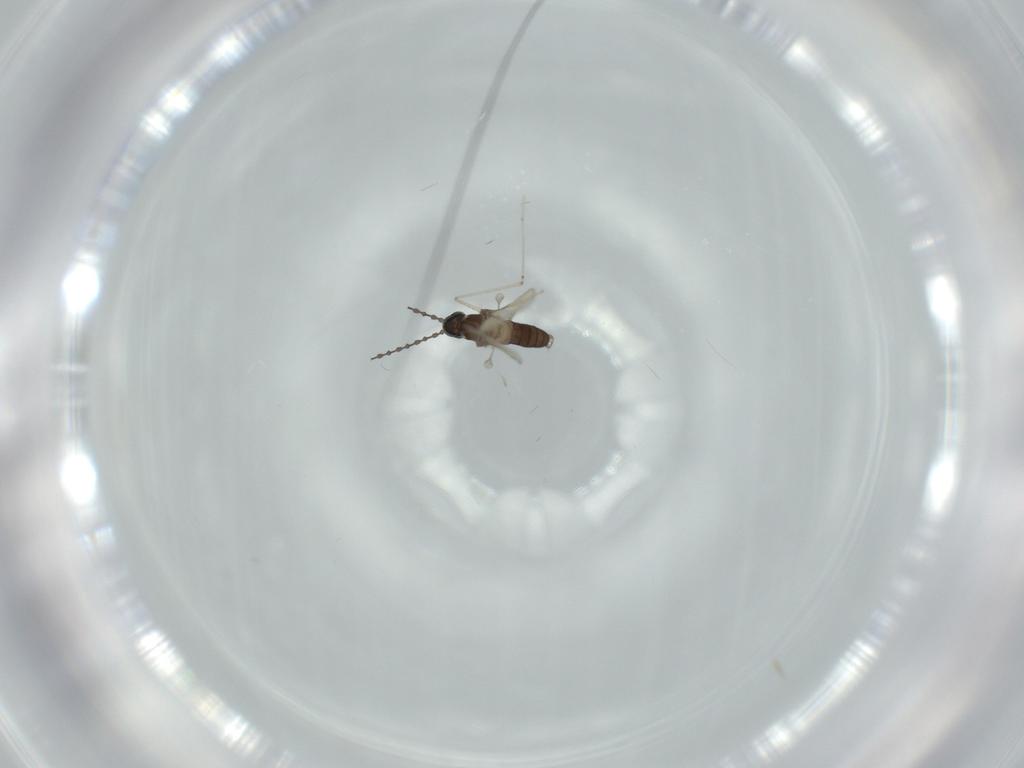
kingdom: Animalia
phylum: Arthropoda
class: Insecta
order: Diptera
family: Cecidomyiidae
